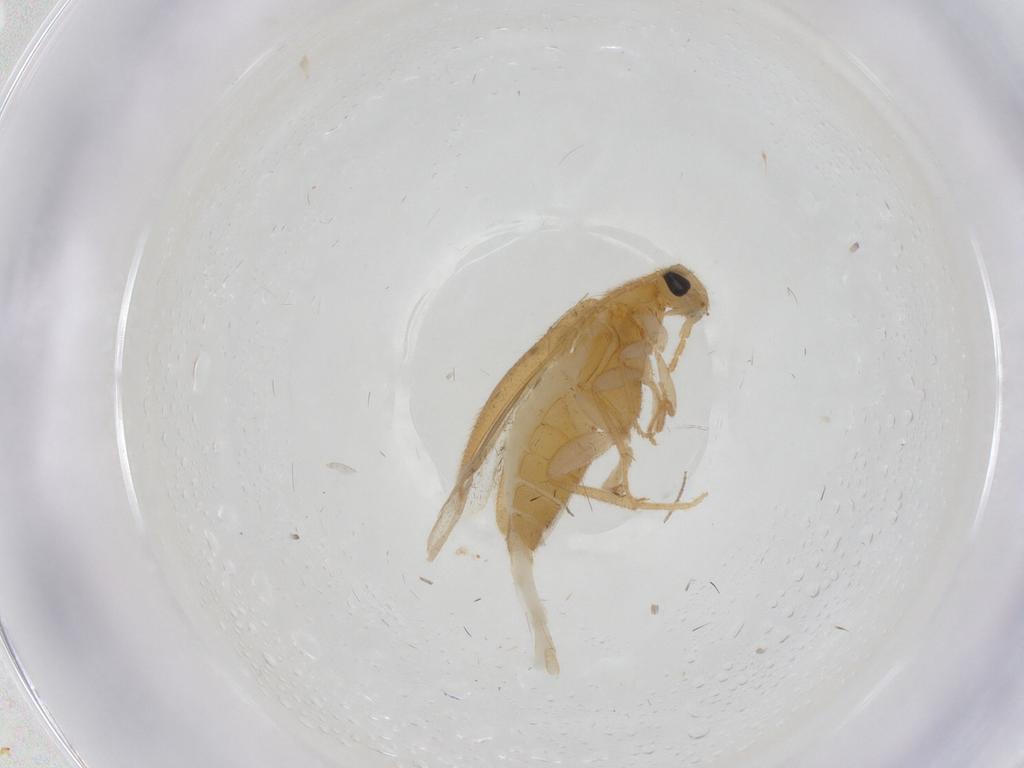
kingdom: Animalia
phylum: Arthropoda
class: Insecta
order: Coleoptera
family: Scraptiidae
